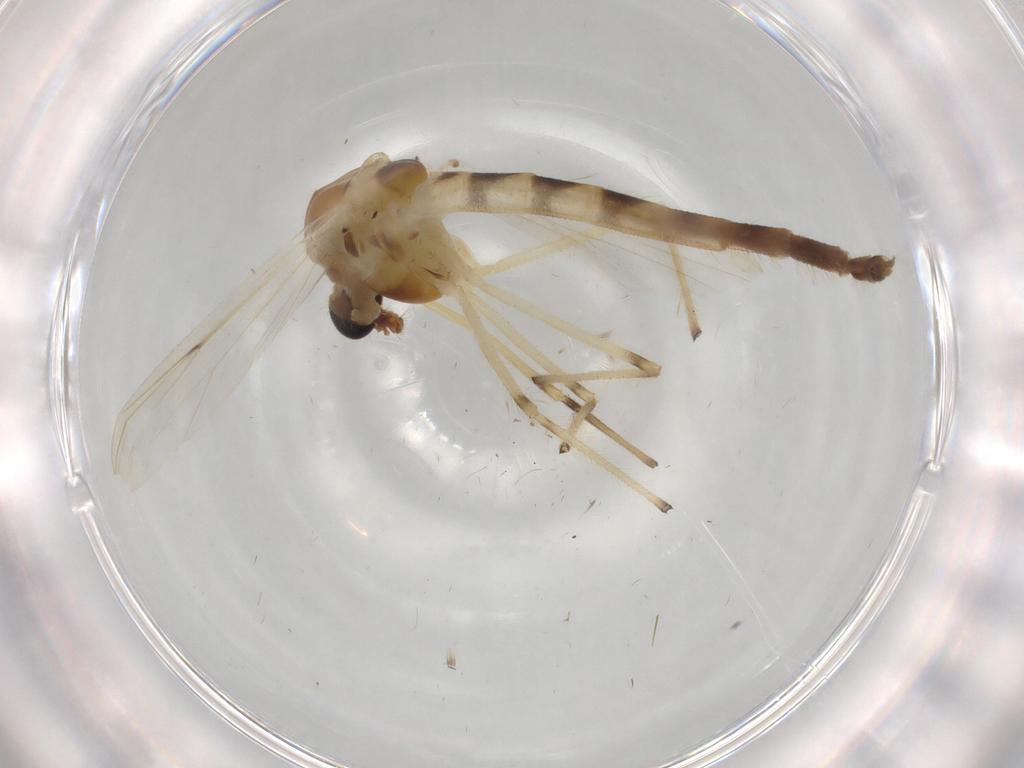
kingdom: Animalia
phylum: Arthropoda
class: Insecta
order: Diptera
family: Chironomidae
